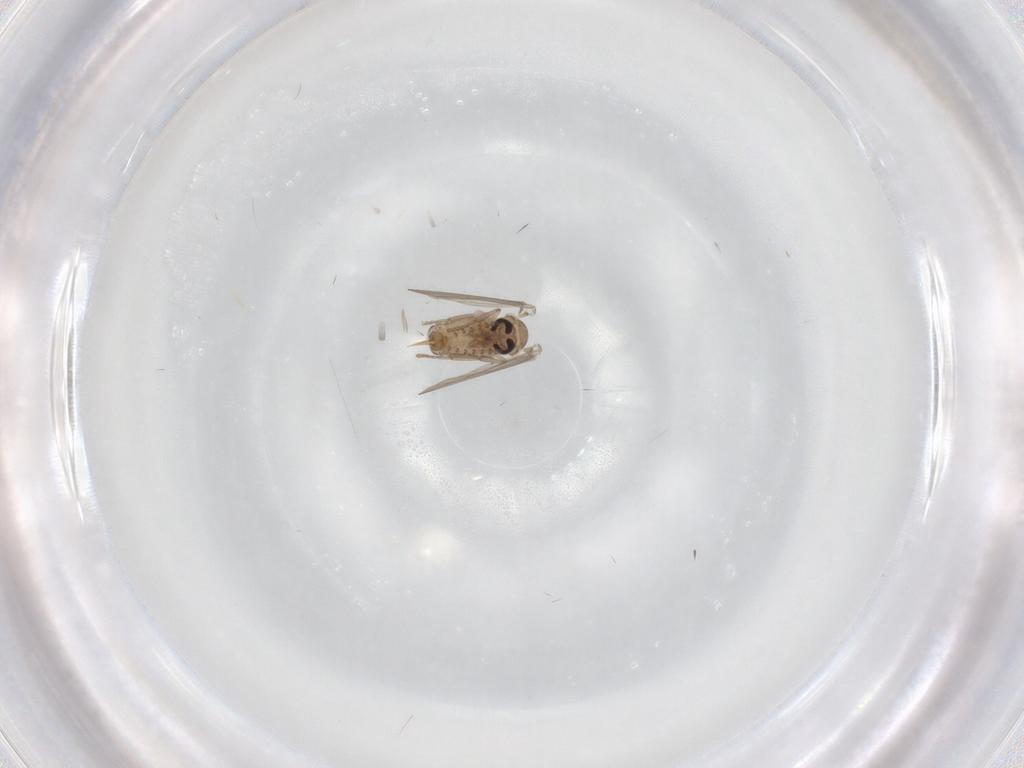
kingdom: Animalia
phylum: Arthropoda
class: Insecta
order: Diptera
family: Psychodidae
